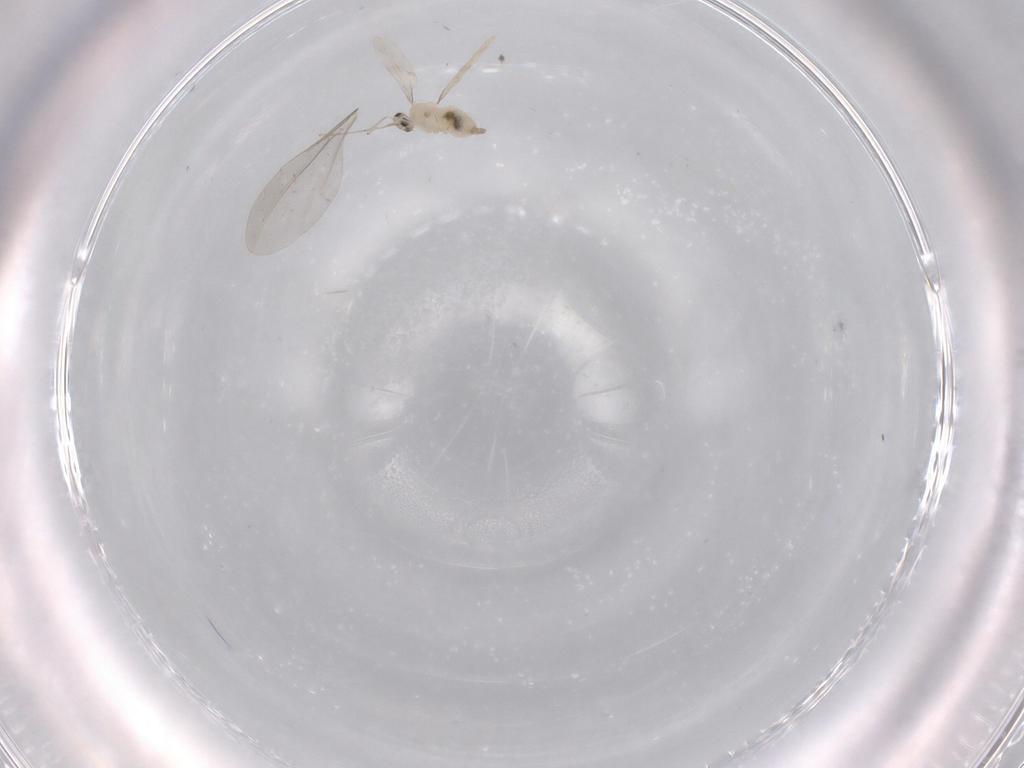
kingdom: Animalia
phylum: Arthropoda
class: Insecta
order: Diptera
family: Cecidomyiidae
